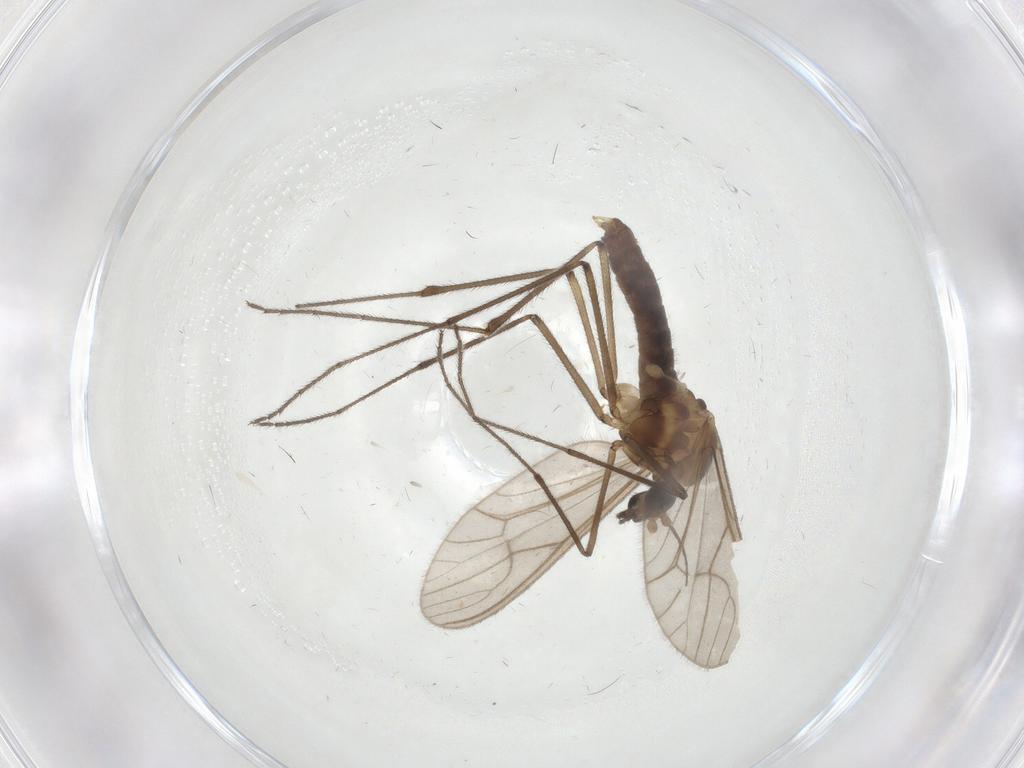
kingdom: Animalia
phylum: Arthropoda
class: Insecta
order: Diptera
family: Cecidomyiidae
